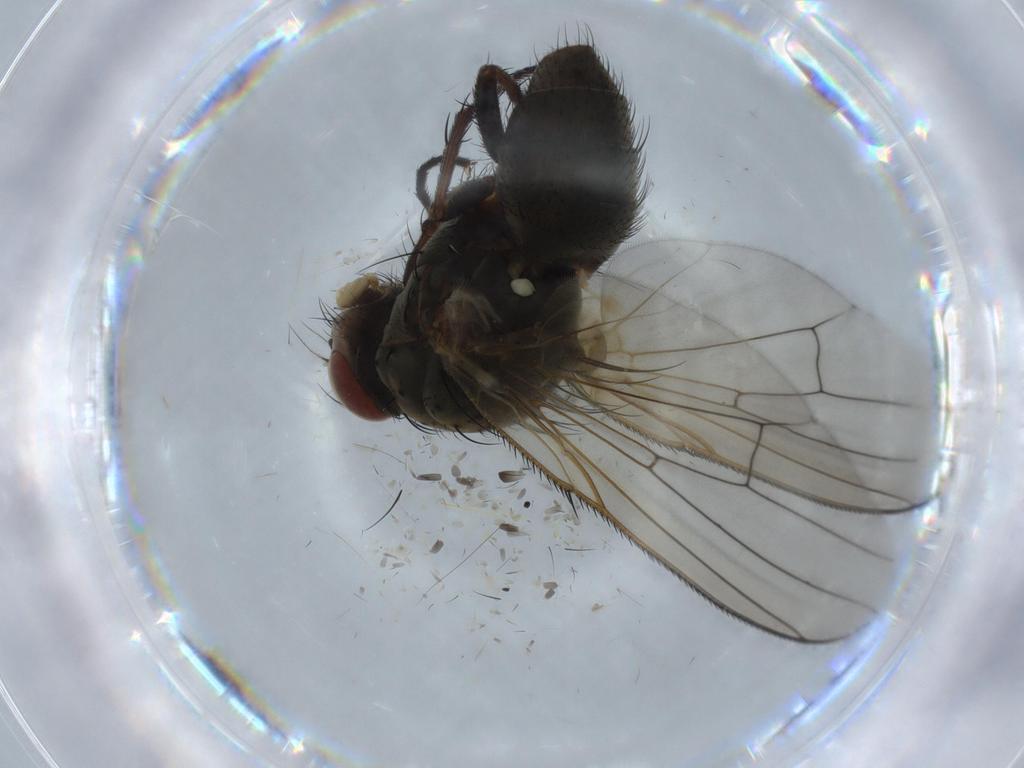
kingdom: Animalia
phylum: Arthropoda
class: Insecta
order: Diptera
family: Anthomyiidae
